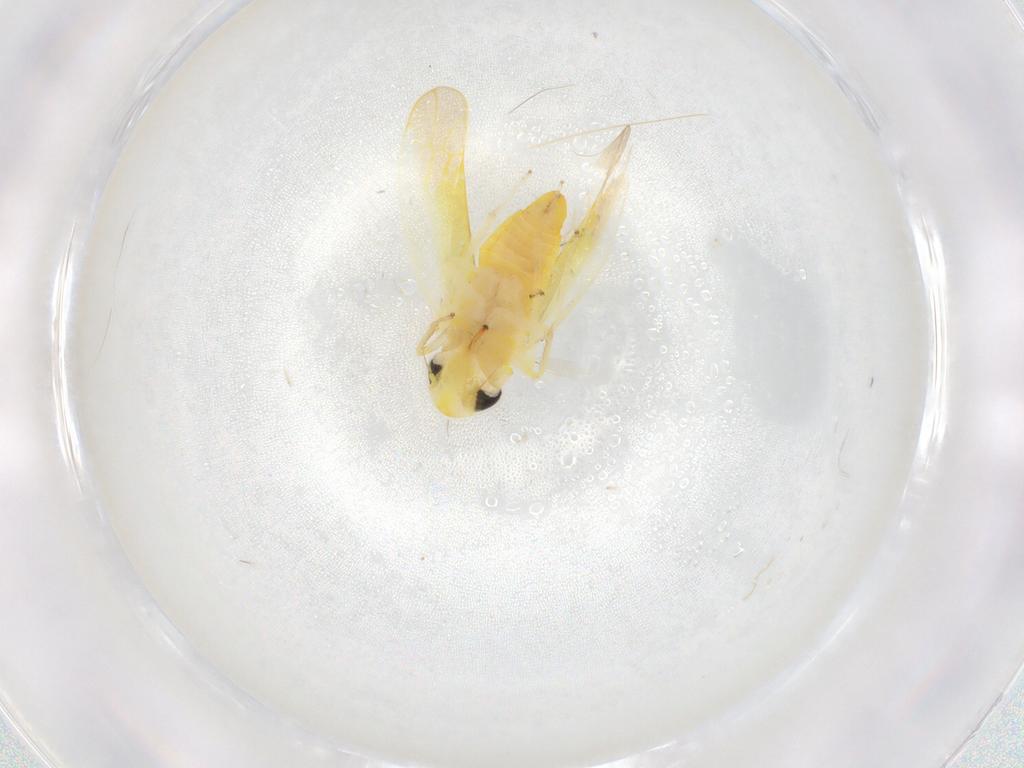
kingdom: Animalia
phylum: Arthropoda
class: Insecta
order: Hemiptera
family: Cicadellidae
